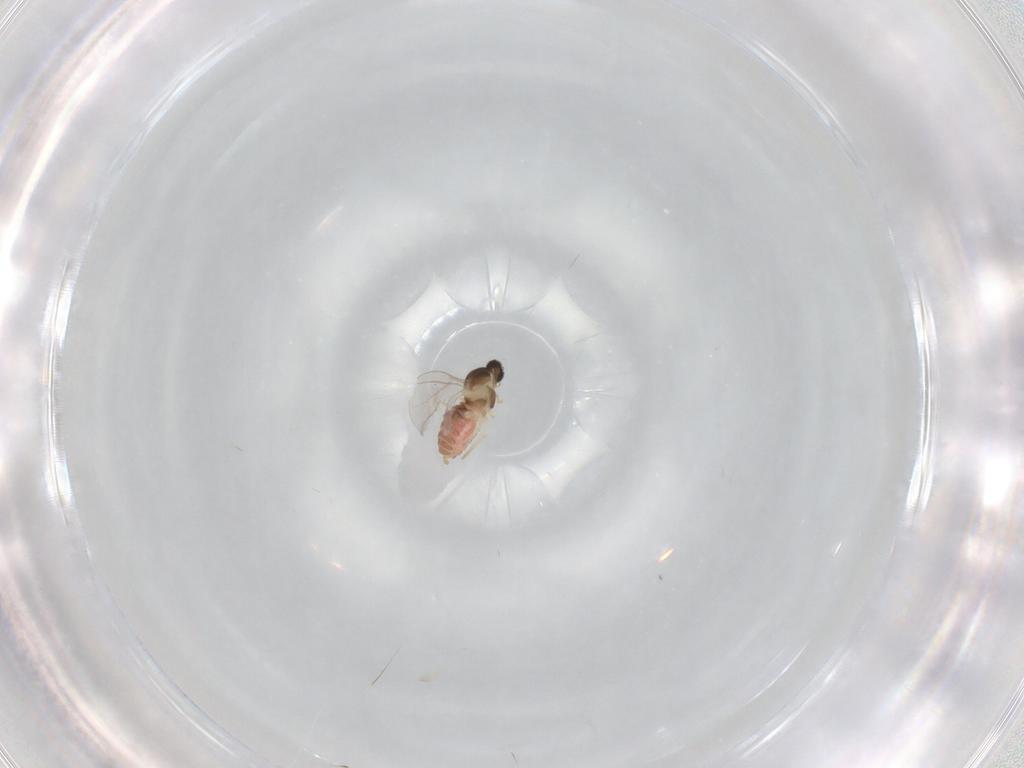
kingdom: Animalia
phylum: Arthropoda
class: Insecta
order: Diptera
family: Cecidomyiidae
